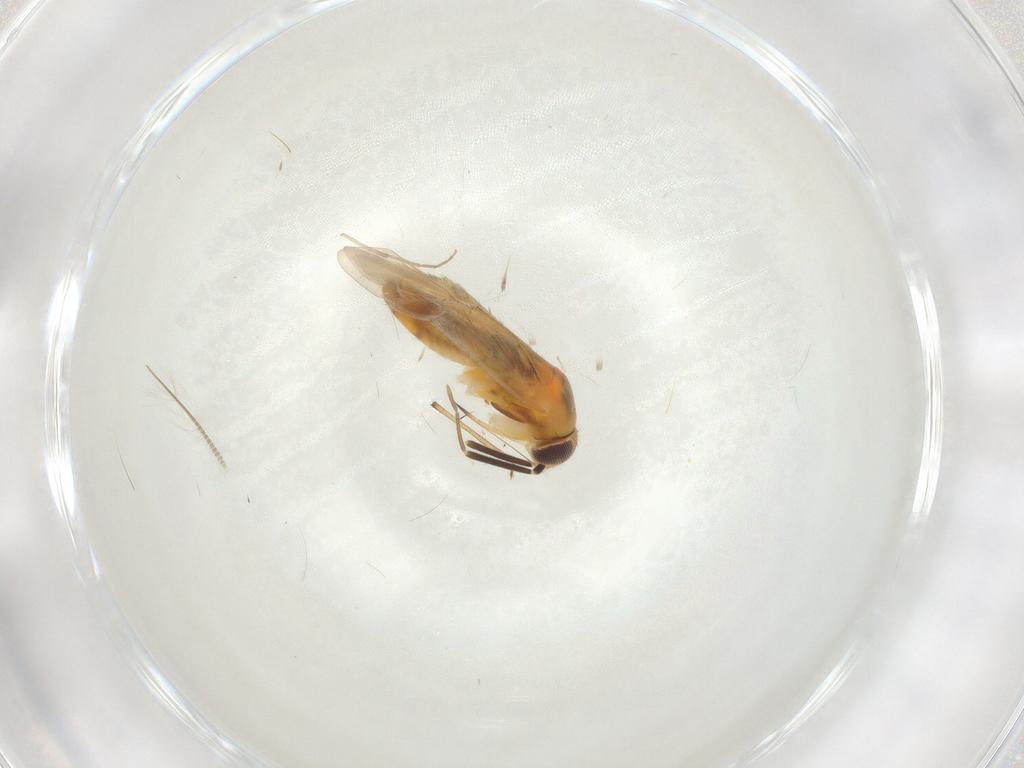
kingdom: Animalia
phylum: Arthropoda
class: Insecta
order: Hemiptera
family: Tingidae
